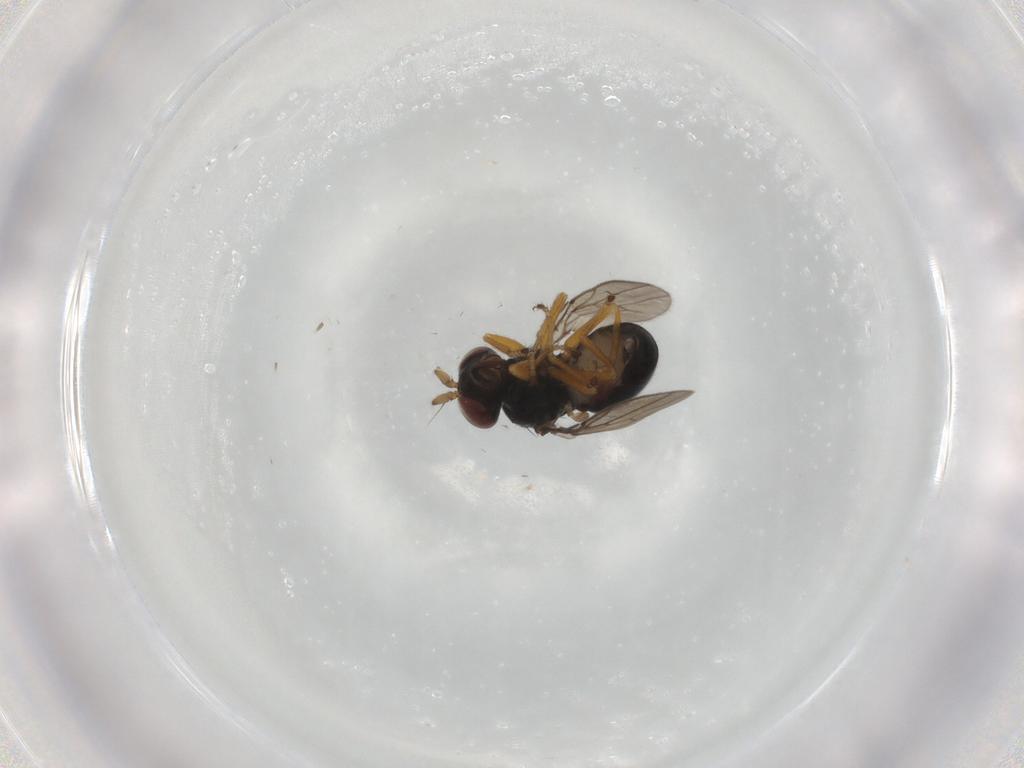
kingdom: Animalia
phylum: Arthropoda
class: Insecta
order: Diptera
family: Ephydridae
